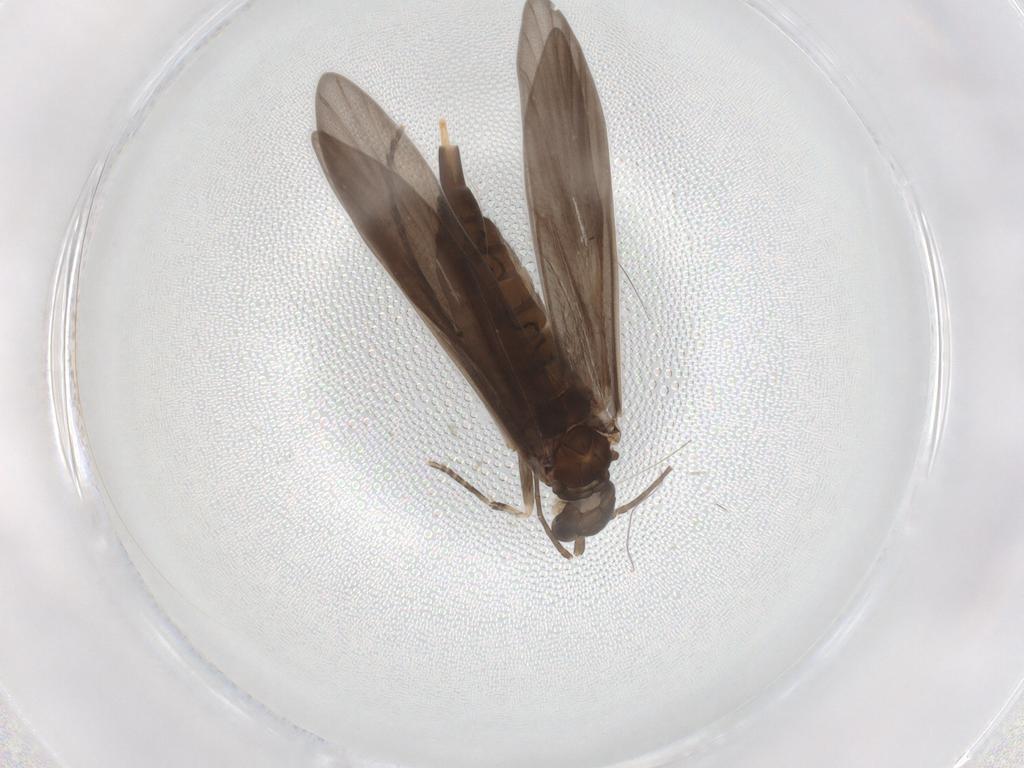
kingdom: Animalia
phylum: Arthropoda
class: Insecta
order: Trichoptera
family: Xiphocentronidae
